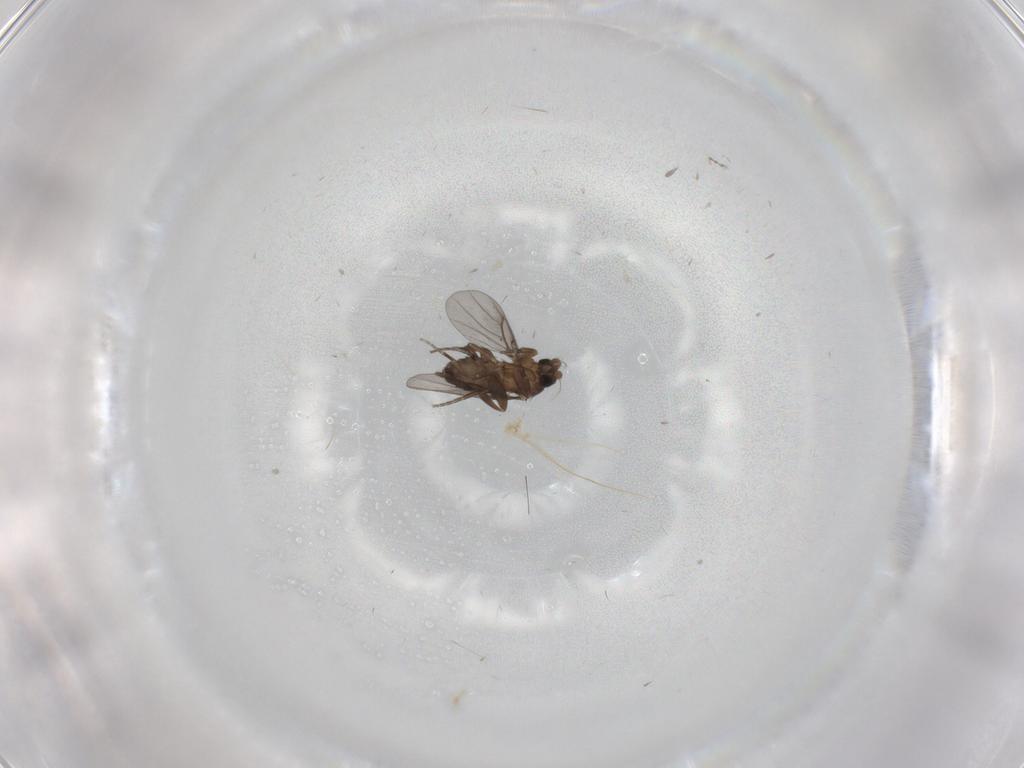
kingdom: Animalia
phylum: Arthropoda
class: Insecta
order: Diptera
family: Phoridae
